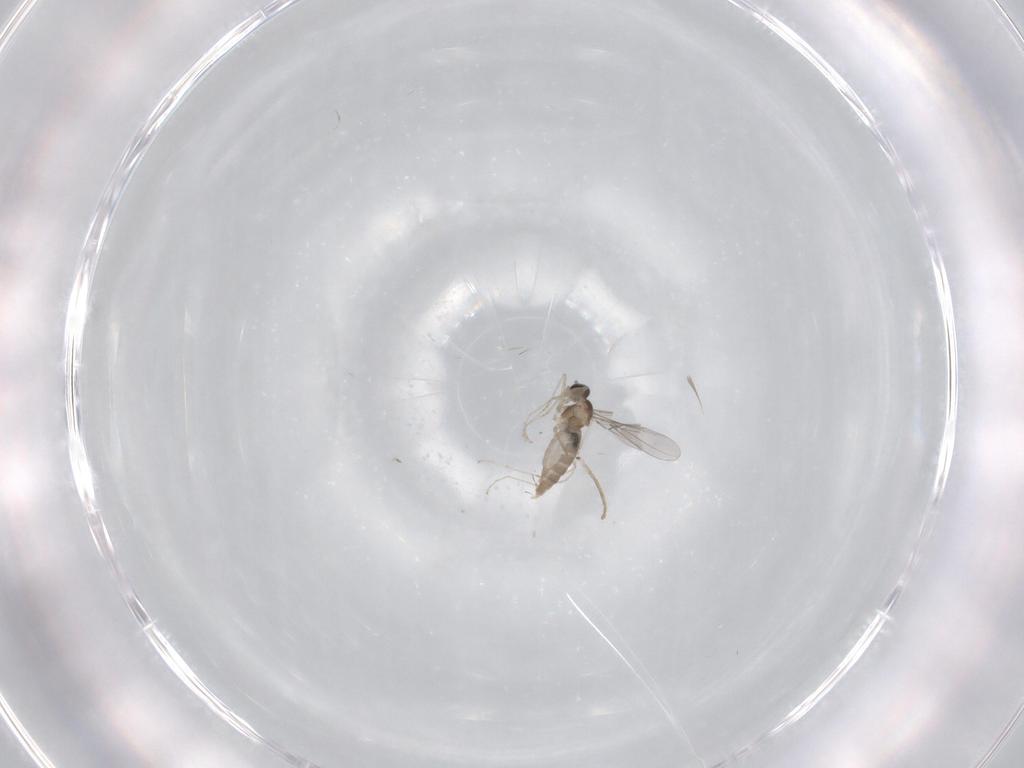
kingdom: Animalia
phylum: Arthropoda
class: Insecta
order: Diptera
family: Cecidomyiidae
